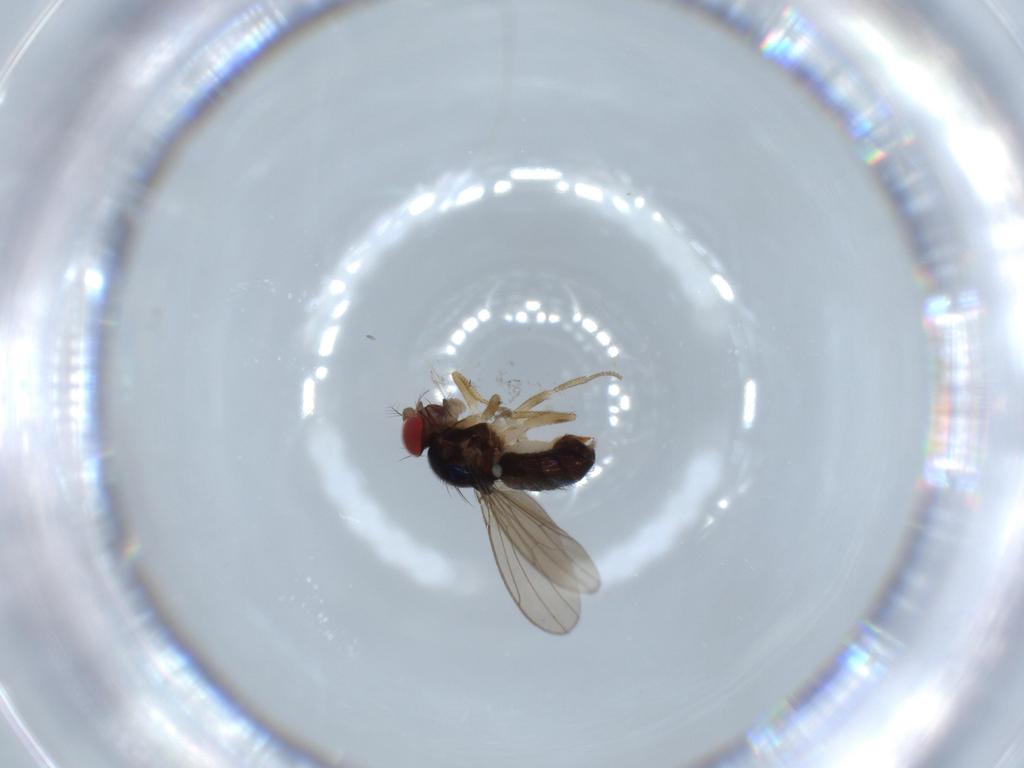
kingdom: Animalia
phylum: Arthropoda
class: Insecta
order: Diptera
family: Drosophilidae
